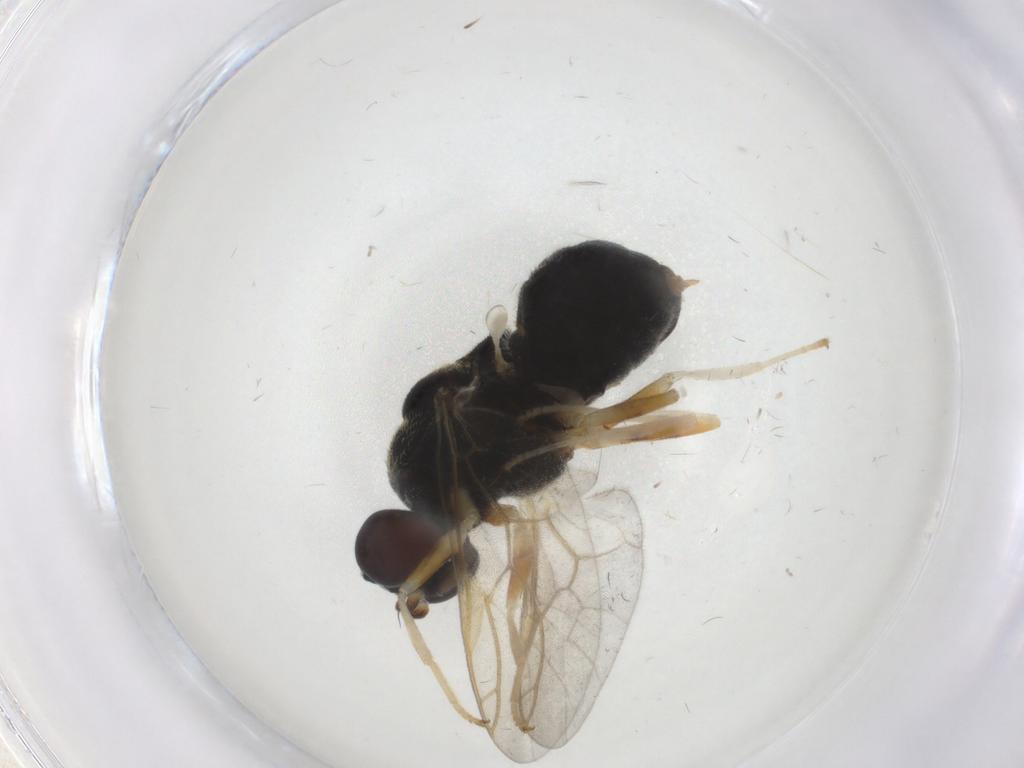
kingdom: Animalia
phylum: Arthropoda
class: Insecta
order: Diptera
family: Stratiomyidae
